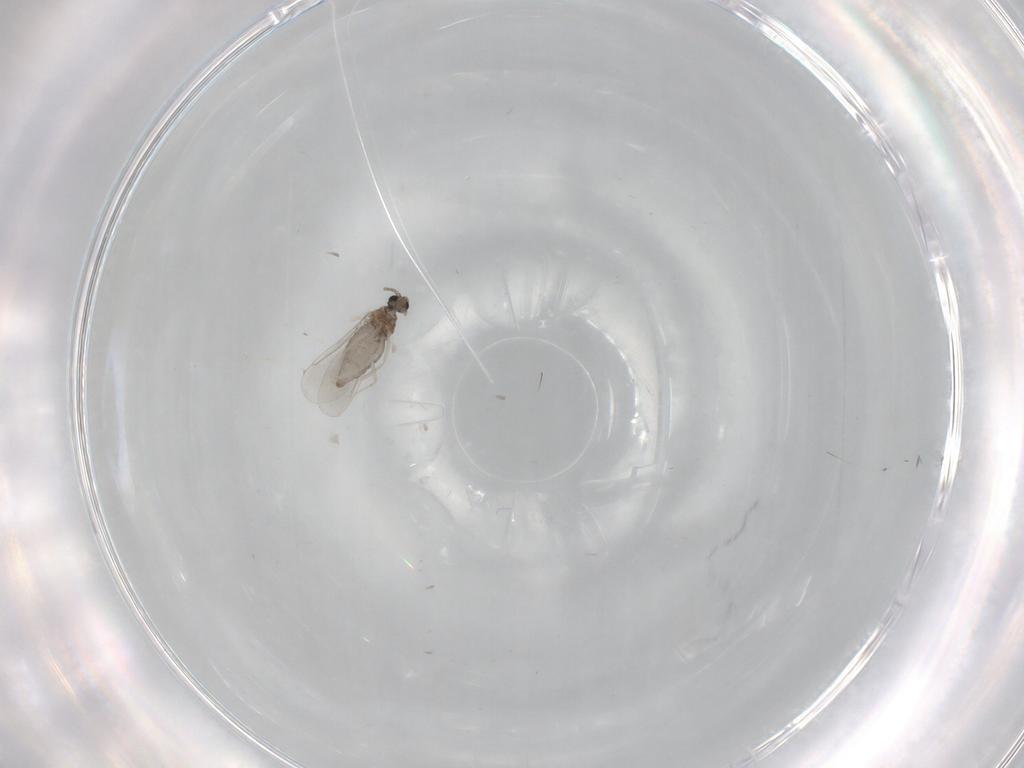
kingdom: Animalia
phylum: Arthropoda
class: Insecta
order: Diptera
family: Cecidomyiidae
